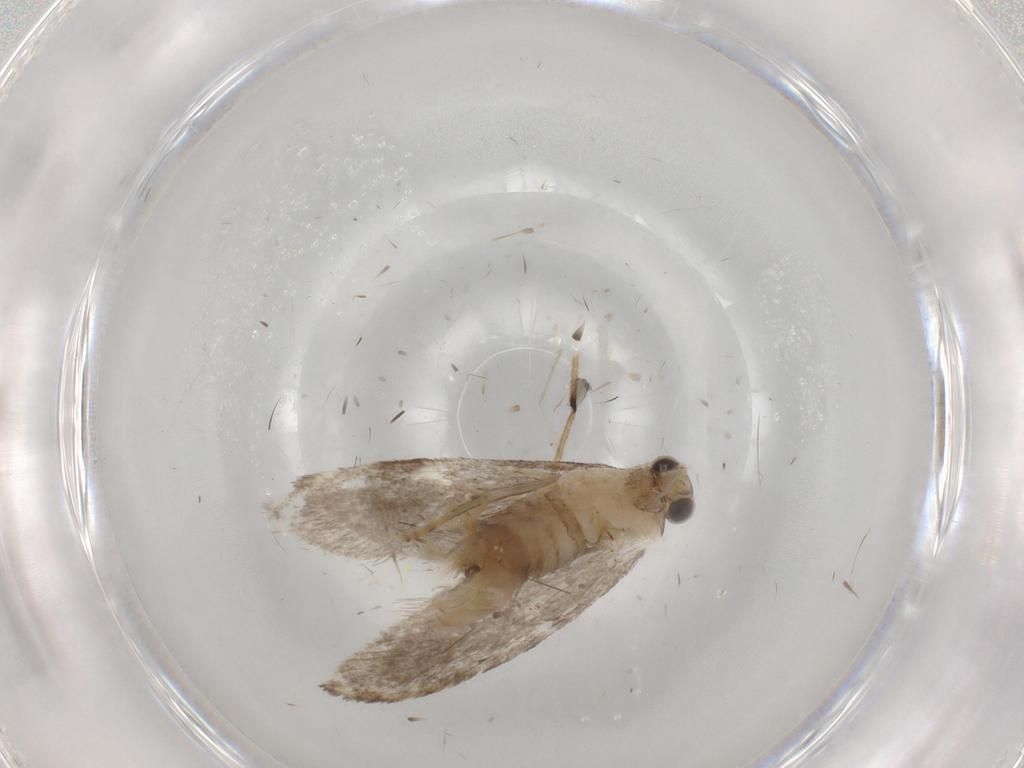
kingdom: Animalia
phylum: Arthropoda
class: Insecta
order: Lepidoptera
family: Tineidae
